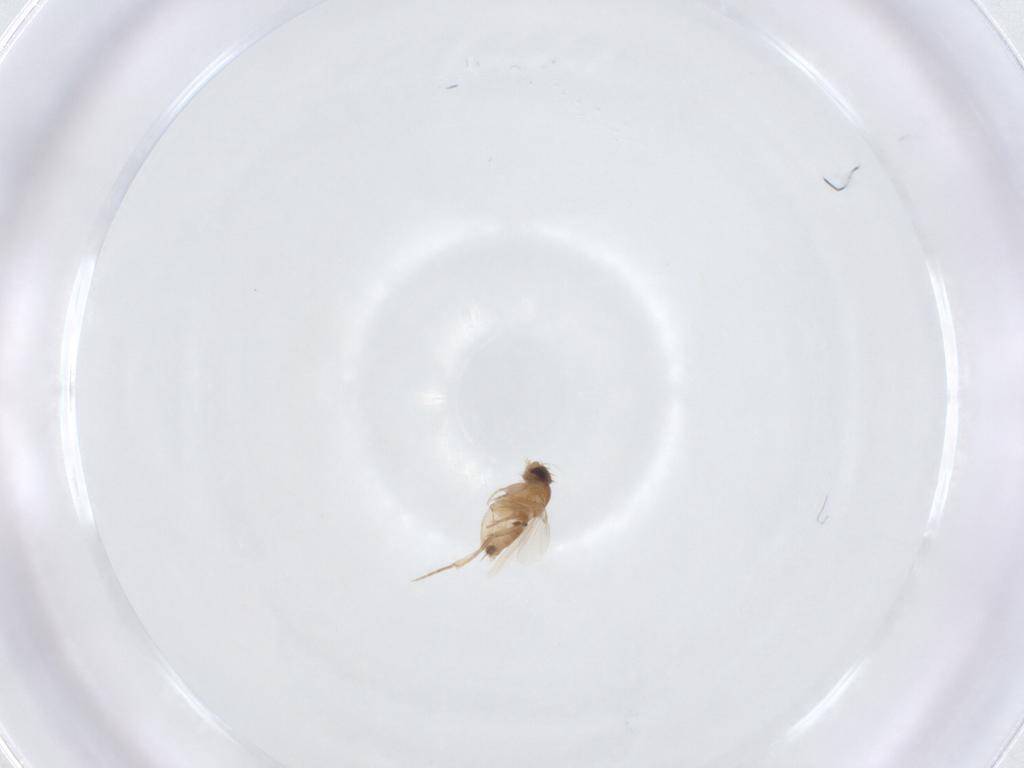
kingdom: Animalia
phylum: Arthropoda
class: Insecta
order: Diptera
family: Phoridae
